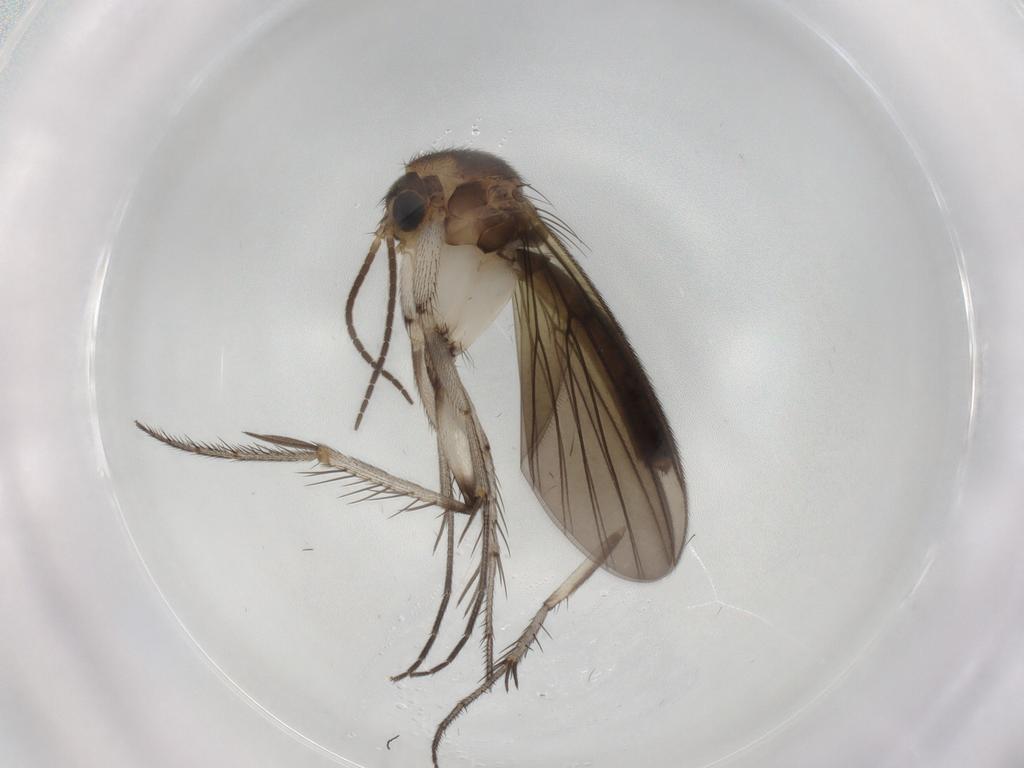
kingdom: Animalia
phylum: Arthropoda
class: Insecta
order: Diptera
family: Mycetophilidae
